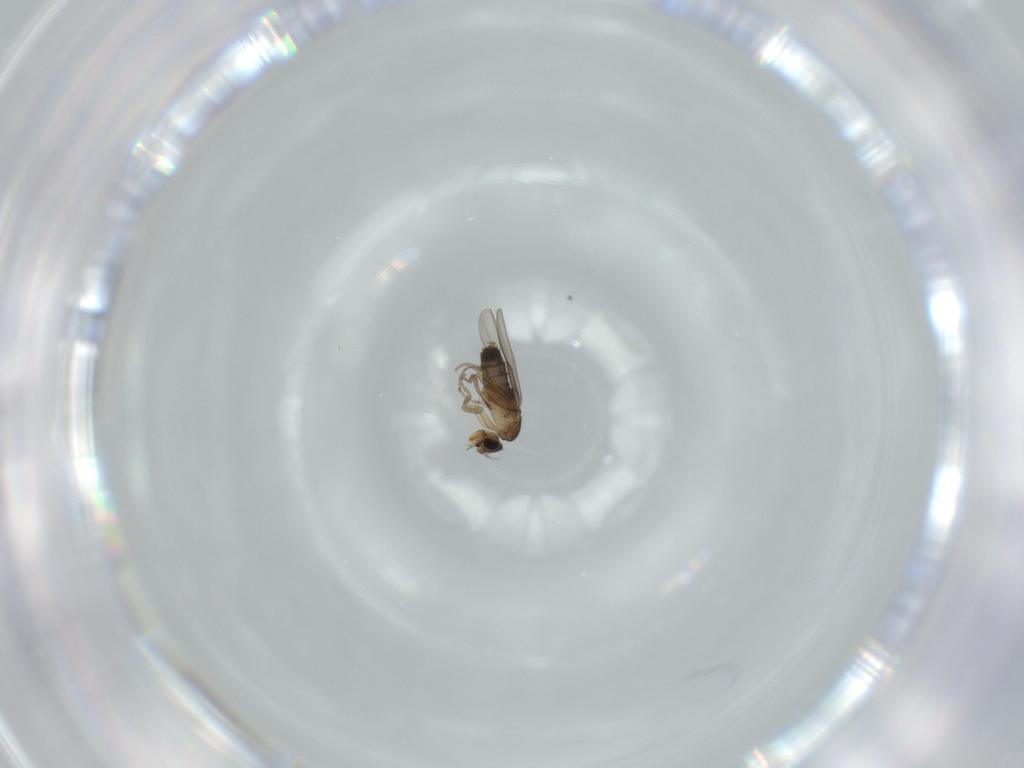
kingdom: Animalia
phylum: Arthropoda
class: Insecta
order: Diptera
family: Phoridae
